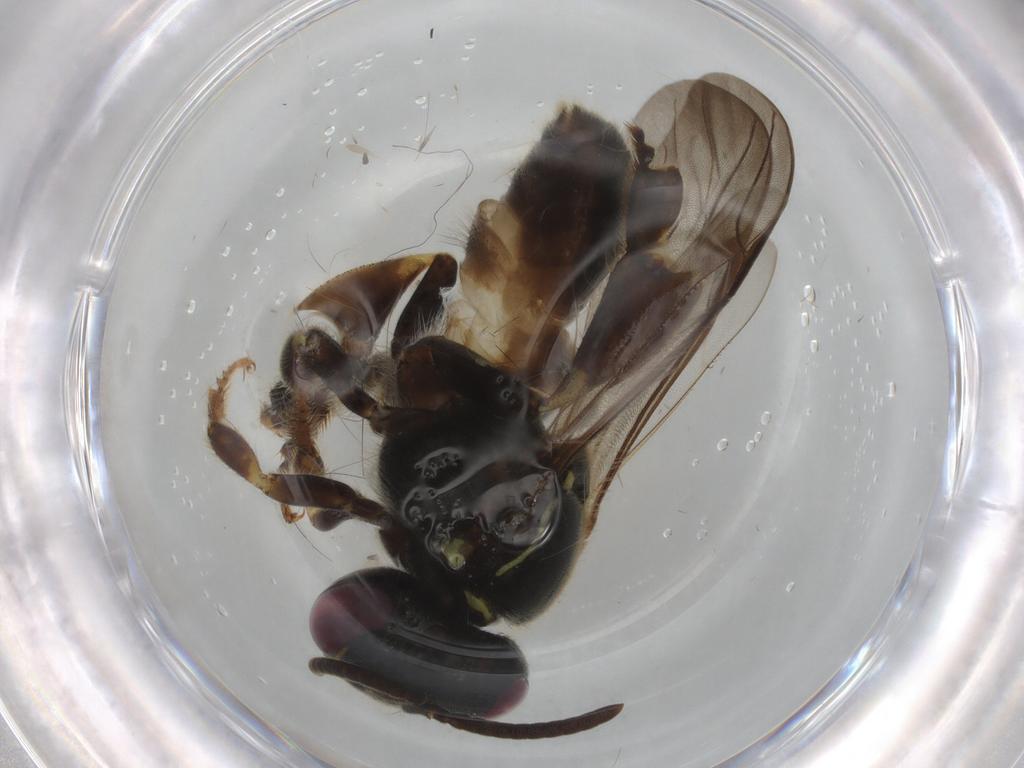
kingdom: Animalia
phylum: Arthropoda
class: Insecta
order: Hymenoptera
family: Apidae
